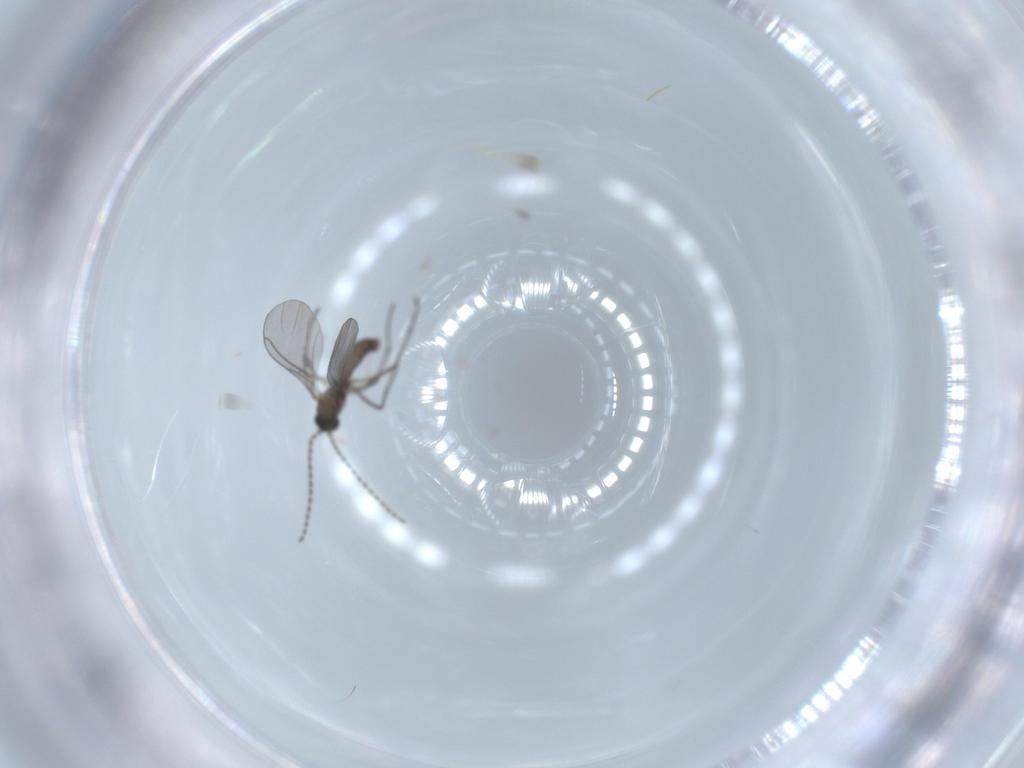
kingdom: Animalia
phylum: Arthropoda
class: Insecta
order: Diptera
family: Sciaridae
